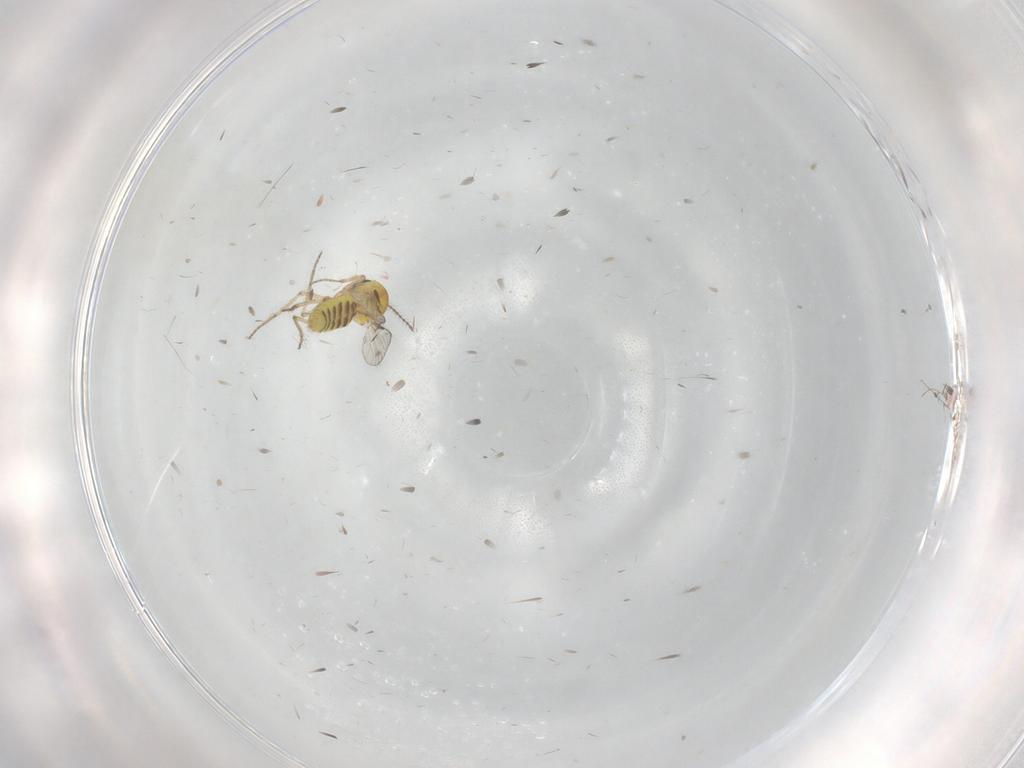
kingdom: Animalia
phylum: Arthropoda
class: Insecta
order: Diptera
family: Ceratopogonidae
